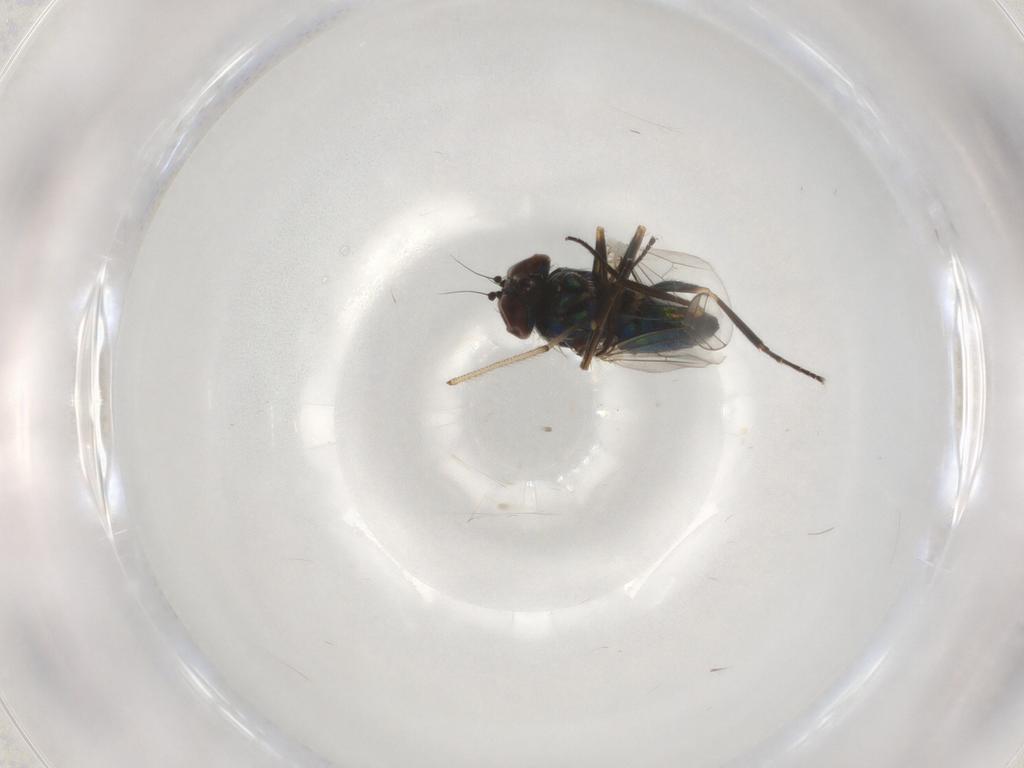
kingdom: Animalia
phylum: Arthropoda
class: Insecta
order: Diptera
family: Dolichopodidae
